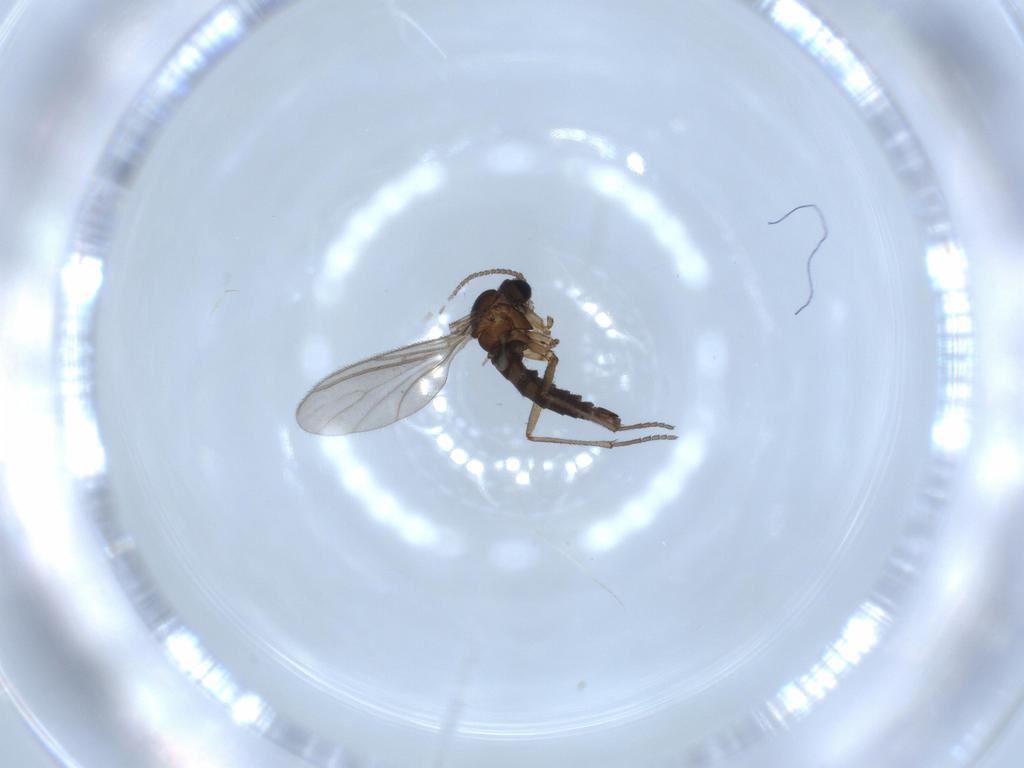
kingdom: Animalia
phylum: Arthropoda
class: Insecta
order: Diptera
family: Sciaridae
